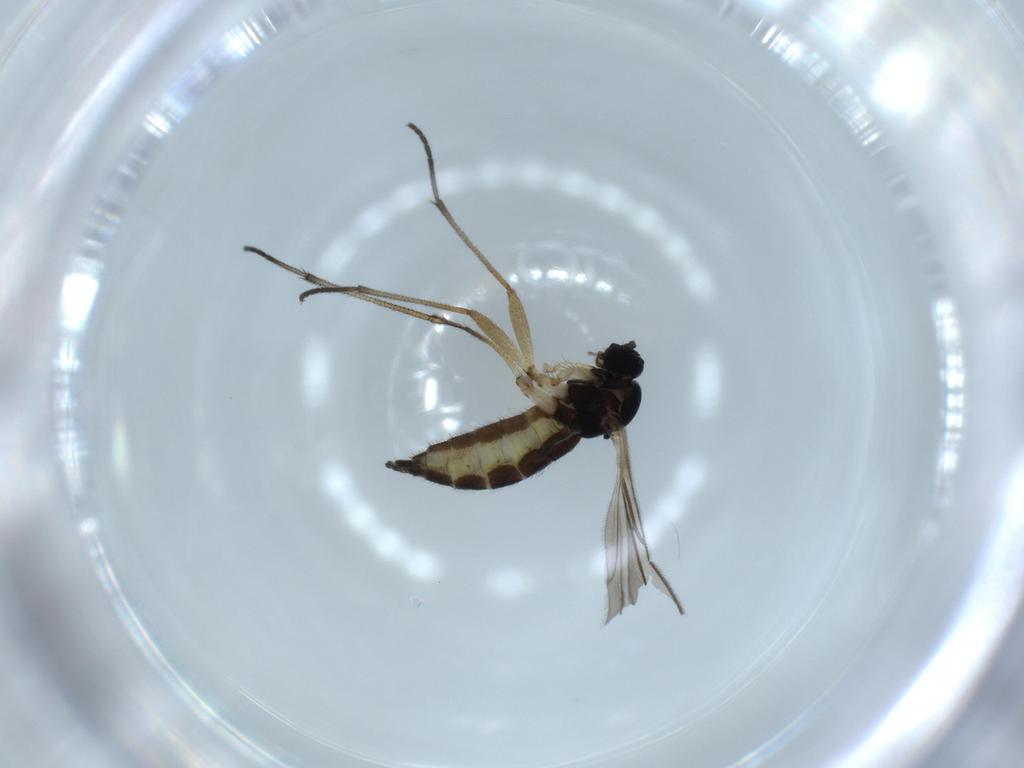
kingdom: Animalia
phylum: Arthropoda
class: Insecta
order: Diptera
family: Sciaridae
